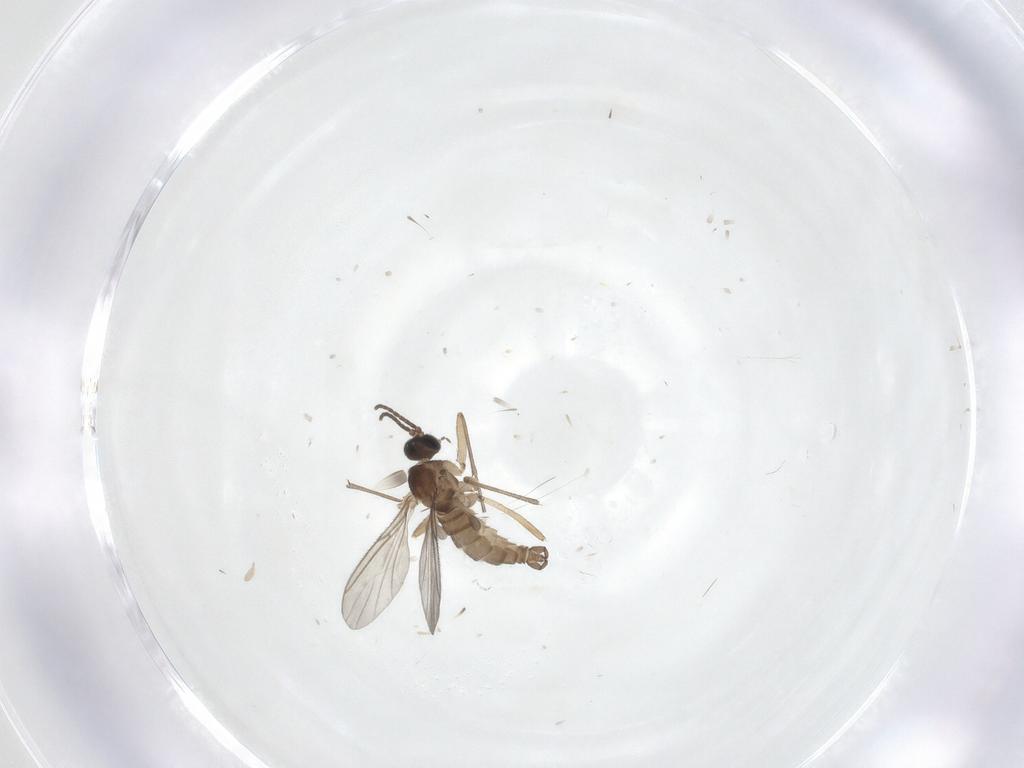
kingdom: Animalia
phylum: Arthropoda
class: Insecta
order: Diptera
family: Sciaridae
